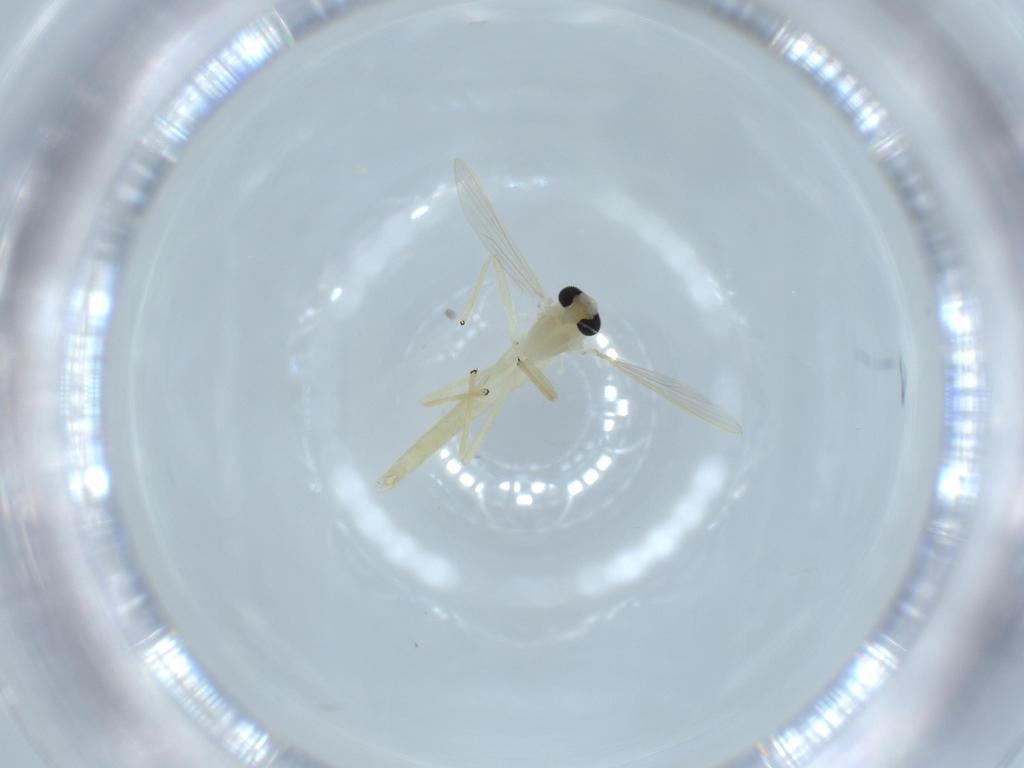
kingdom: Animalia
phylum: Arthropoda
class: Insecta
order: Diptera
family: Chironomidae
